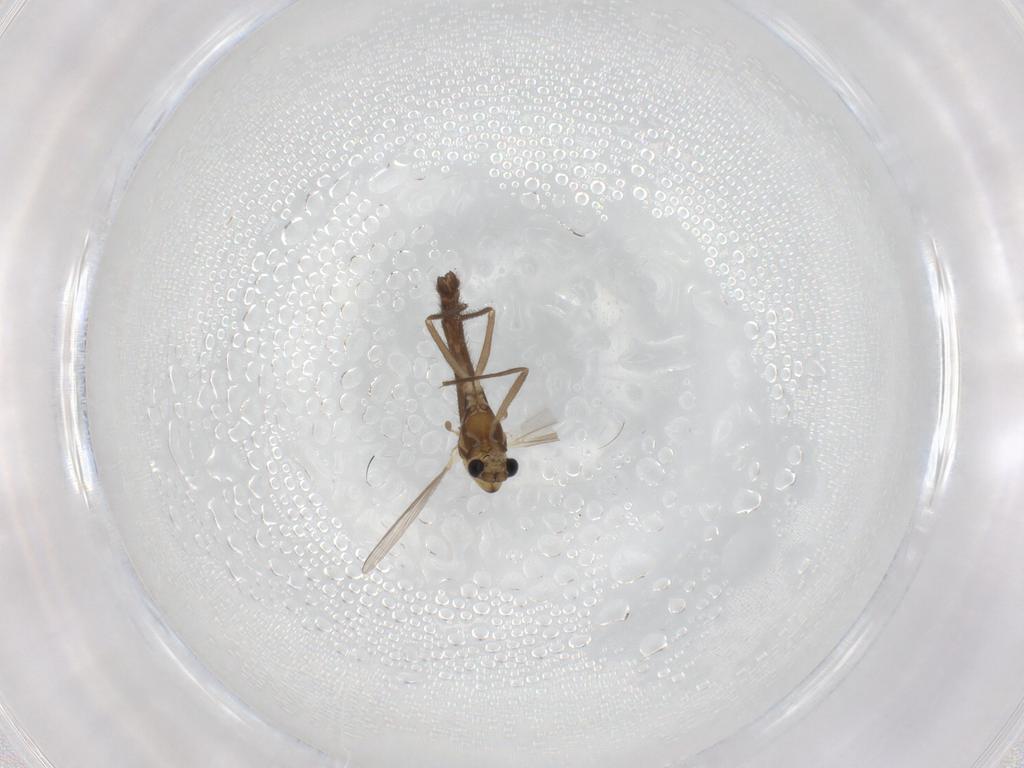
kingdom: Animalia
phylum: Arthropoda
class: Insecta
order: Diptera
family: Chironomidae
